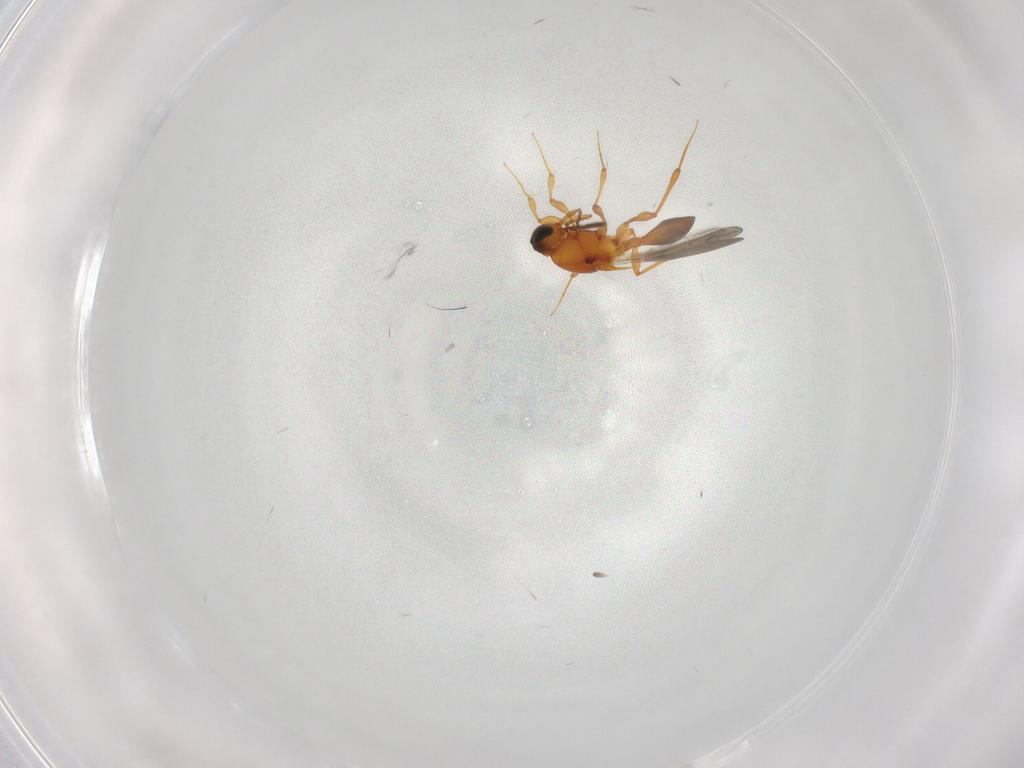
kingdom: Animalia
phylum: Arthropoda
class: Insecta
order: Hymenoptera
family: Platygastridae
